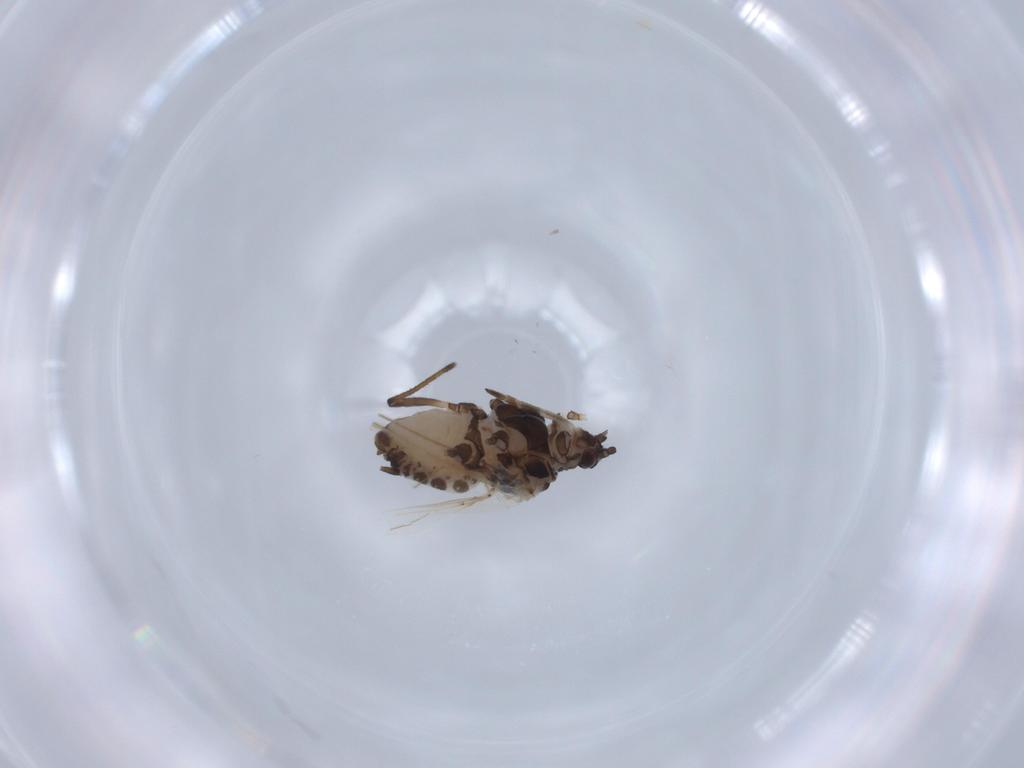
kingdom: Animalia
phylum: Arthropoda
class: Insecta
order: Hemiptera
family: Aphididae
